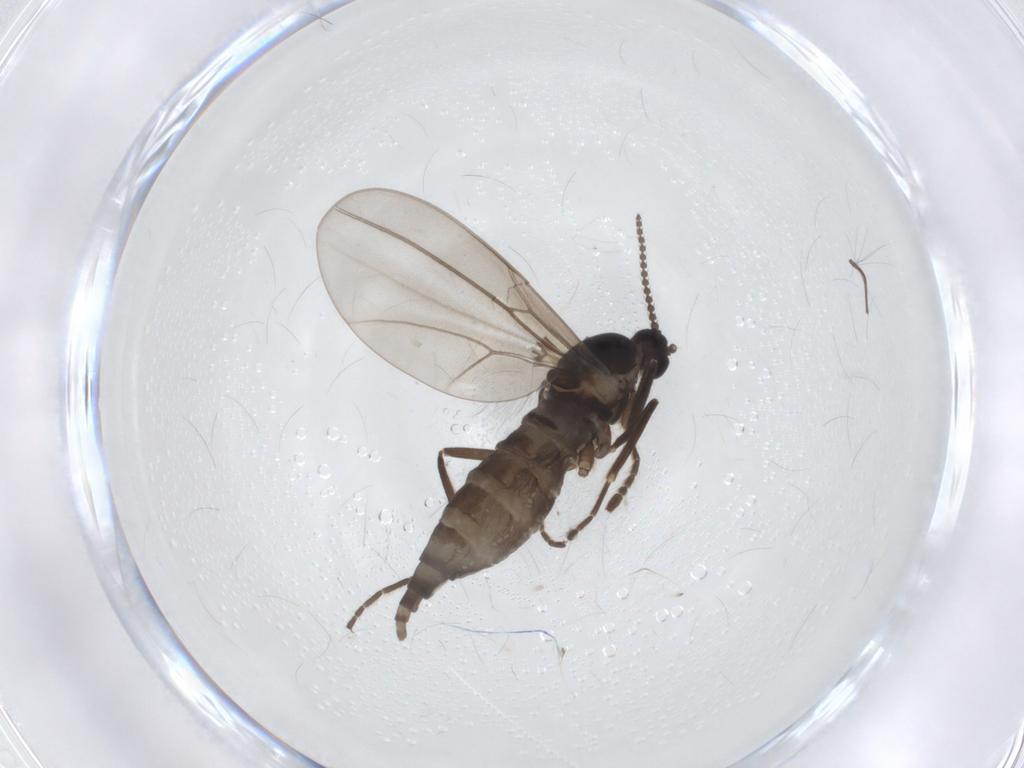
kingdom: Animalia
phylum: Arthropoda
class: Insecta
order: Diptera
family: Cecidomyiidae
